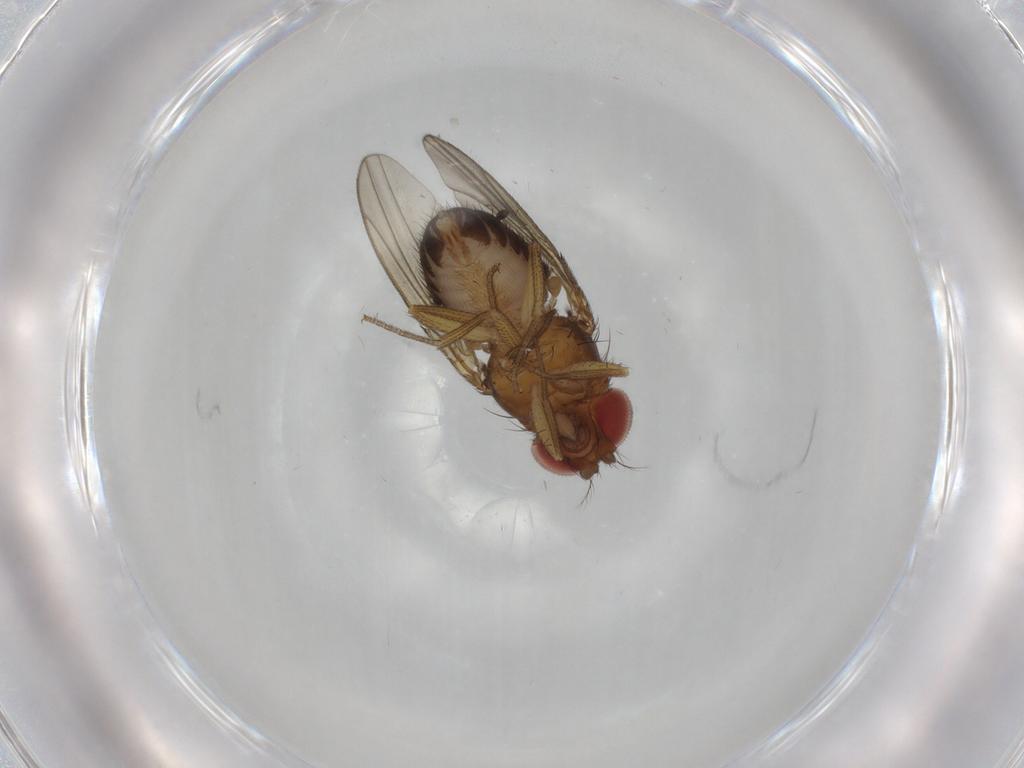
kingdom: Animalia
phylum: Arthropoda
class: Insecta
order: Diptera
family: Drosophilidae
